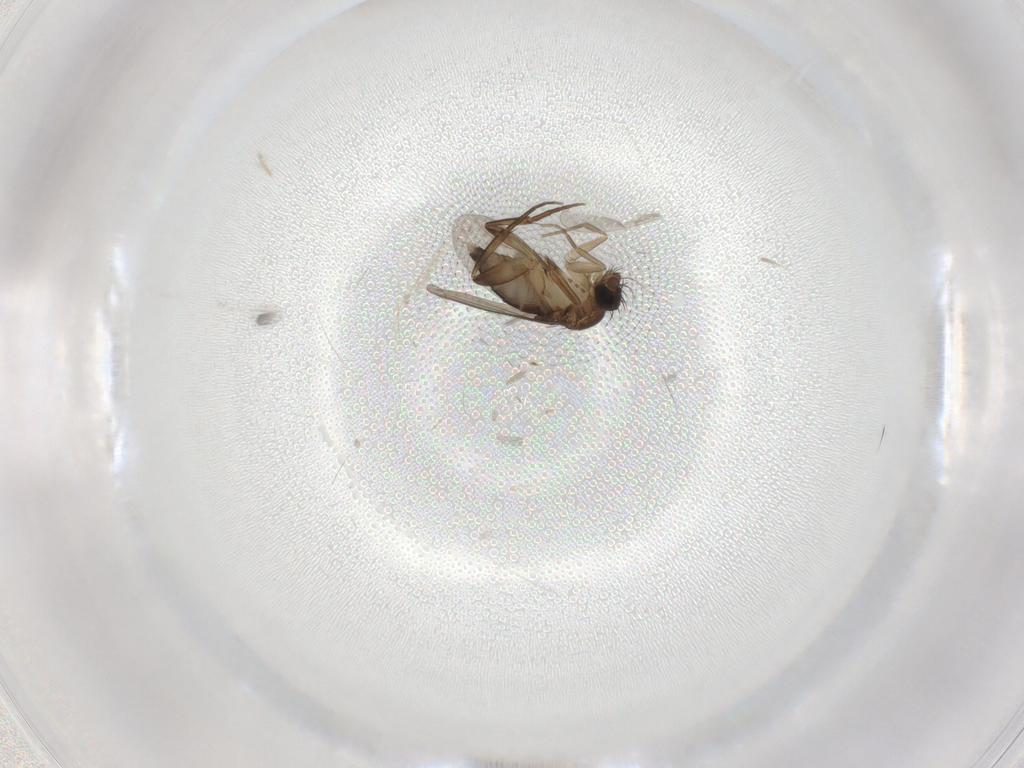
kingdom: Animalia
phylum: Arthropoda
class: Insecta
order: Diptera
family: Phoridae
